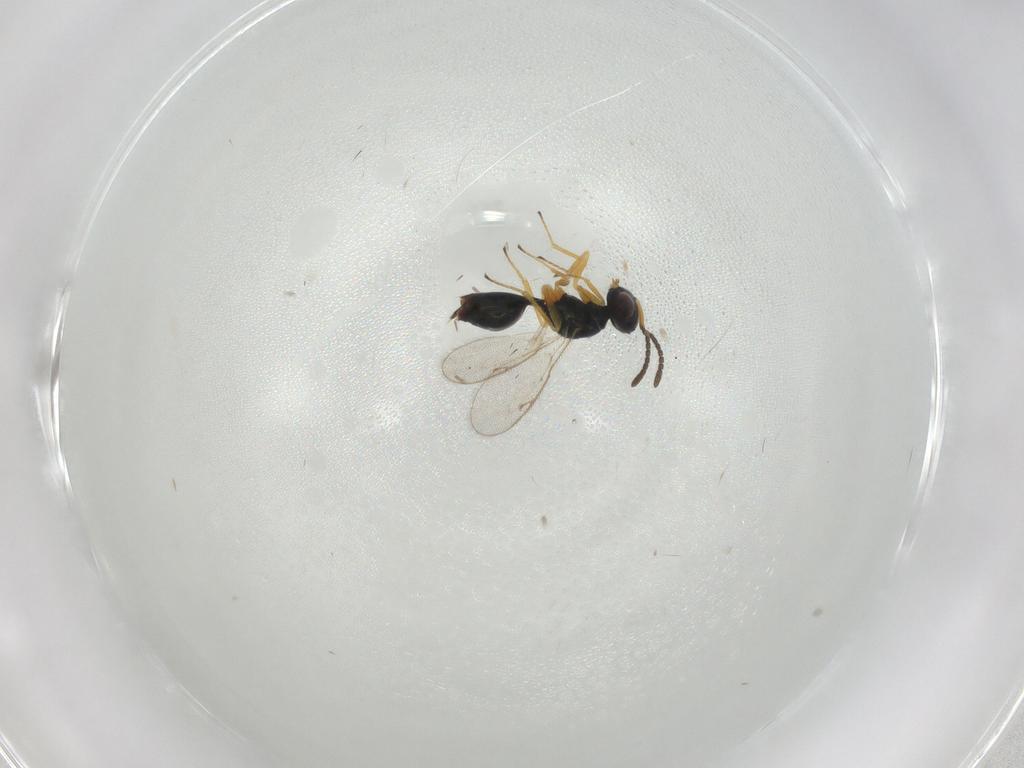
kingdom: Animalia
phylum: Arthropoda
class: Insecta
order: Hymenoptera
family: Pteromalidae
